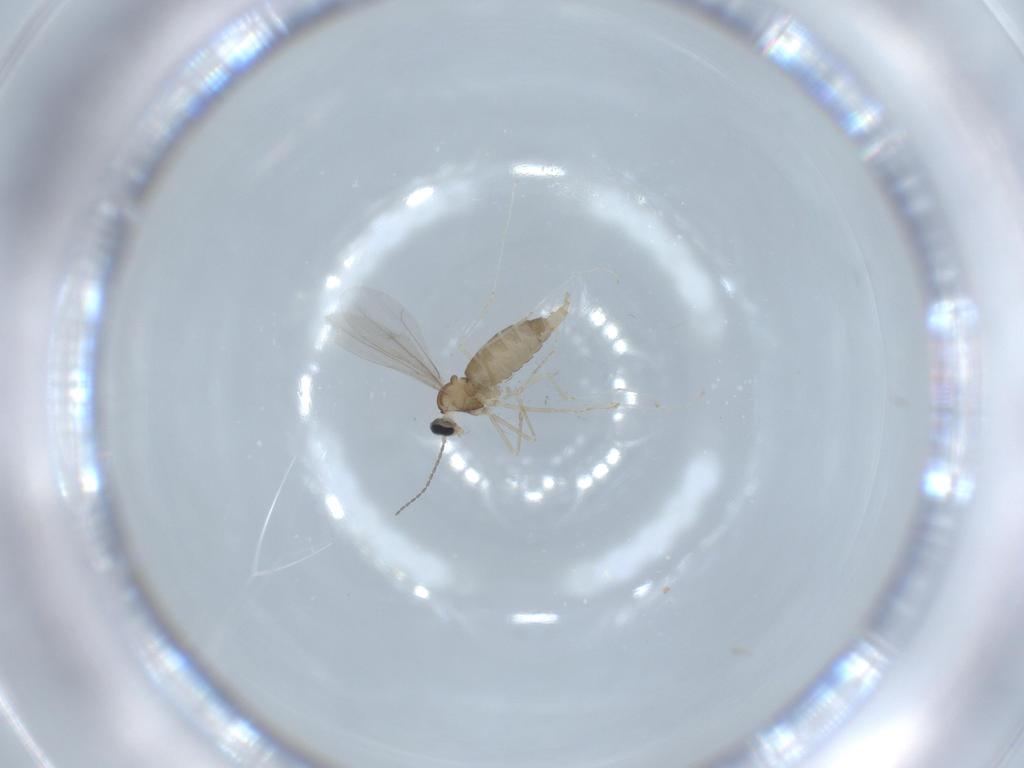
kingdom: Animalia
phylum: Arthropoda
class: Insecta
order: Diptera
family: Cecidomyiidae
